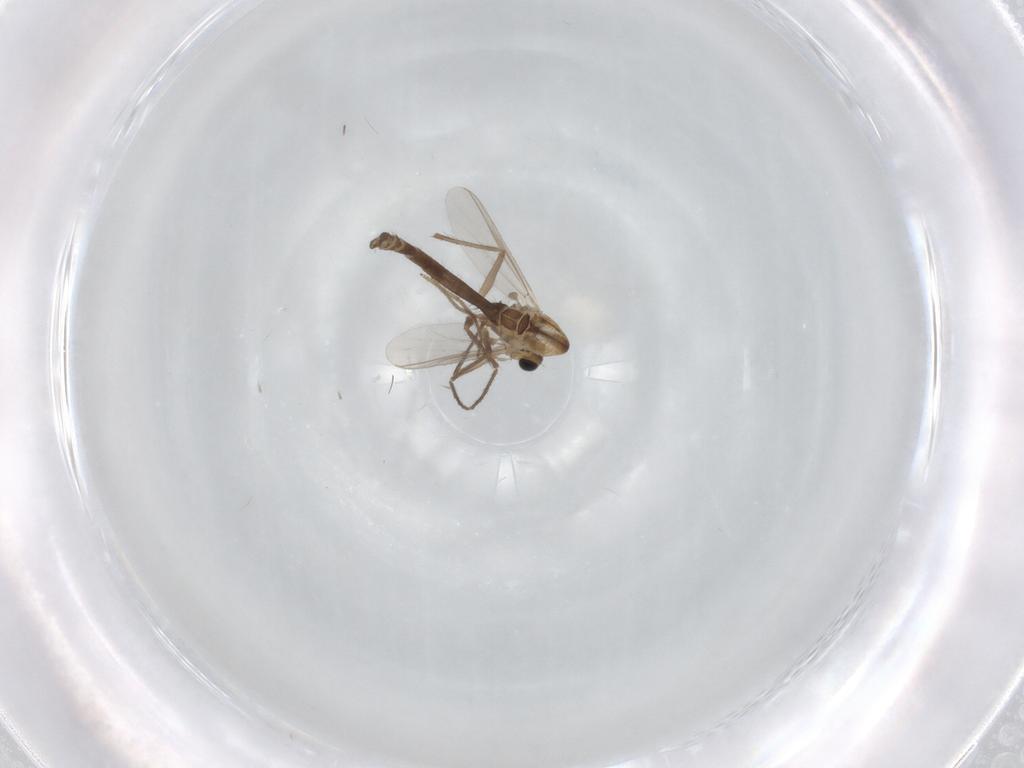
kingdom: Animalia
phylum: Arthropoda
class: Insecta
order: Diptera
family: Chironomidae
